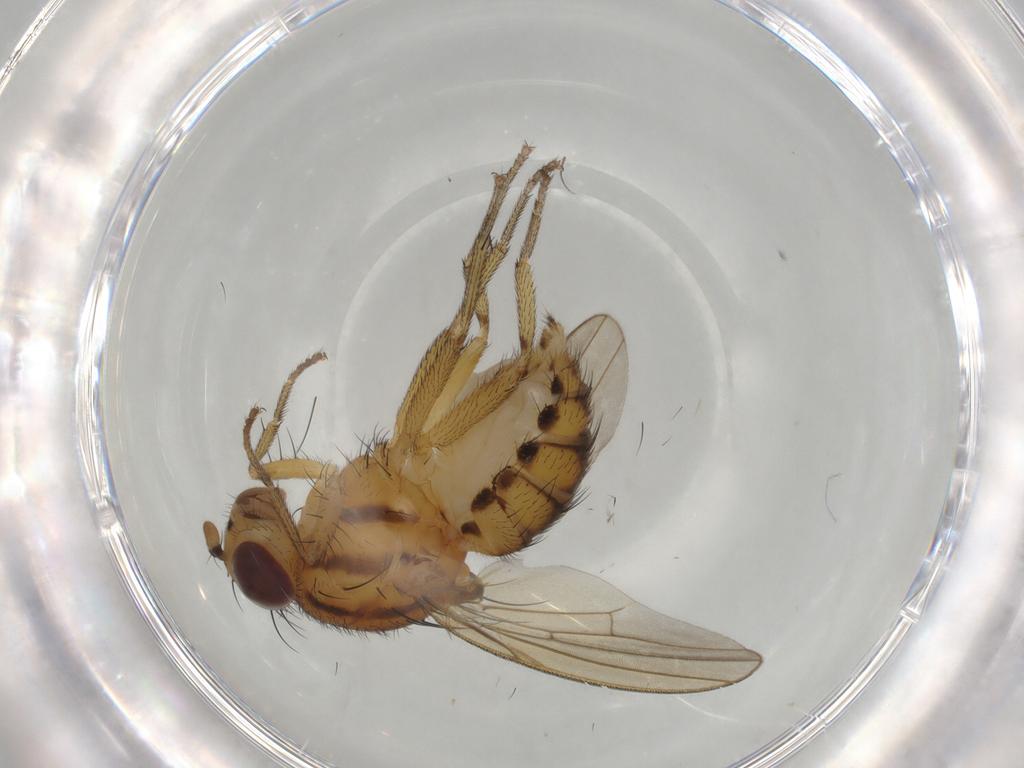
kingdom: Animalia
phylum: Arthropoda
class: Insecta
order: Diptera
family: Lauxaniidae
